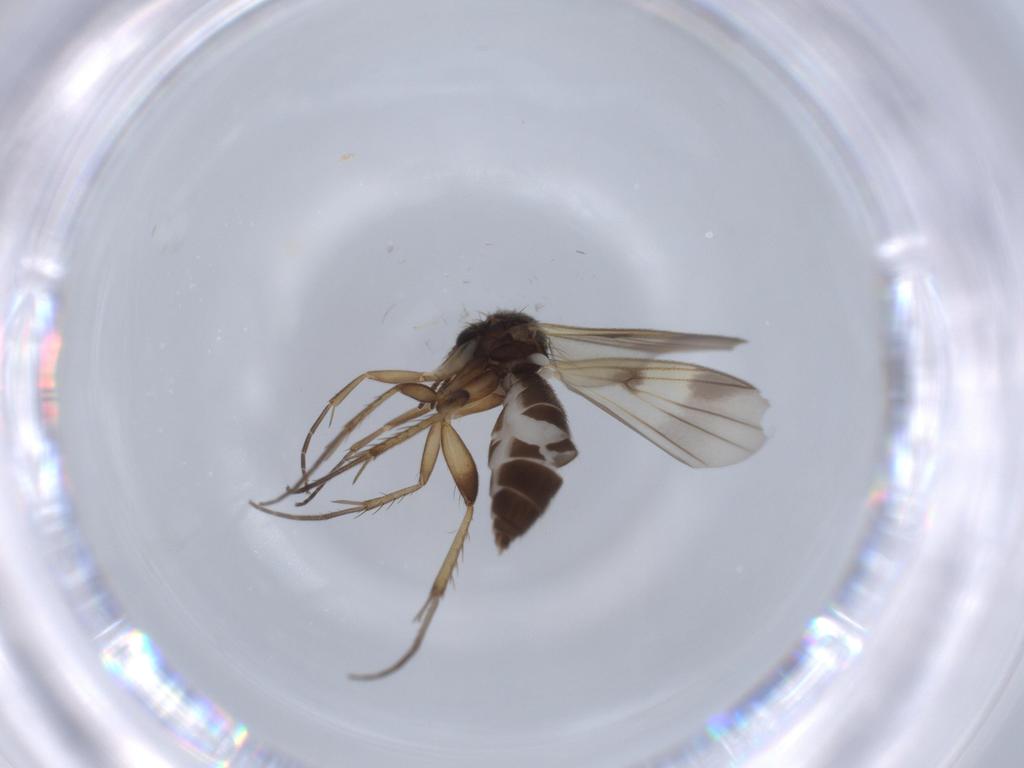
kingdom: Animalia
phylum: Arthropoda
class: Insecta
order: Diptera
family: Mycetophilidae
